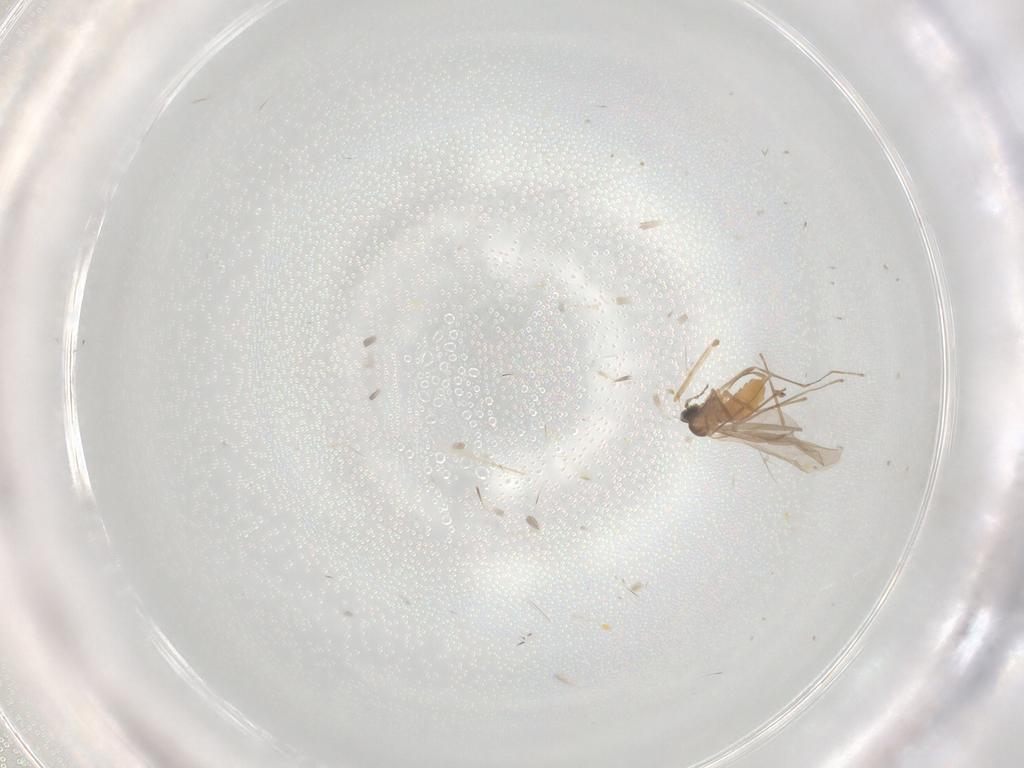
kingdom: Animalia
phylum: Arthropoda
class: Insecta
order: Diptera
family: Cecidomyiidae
